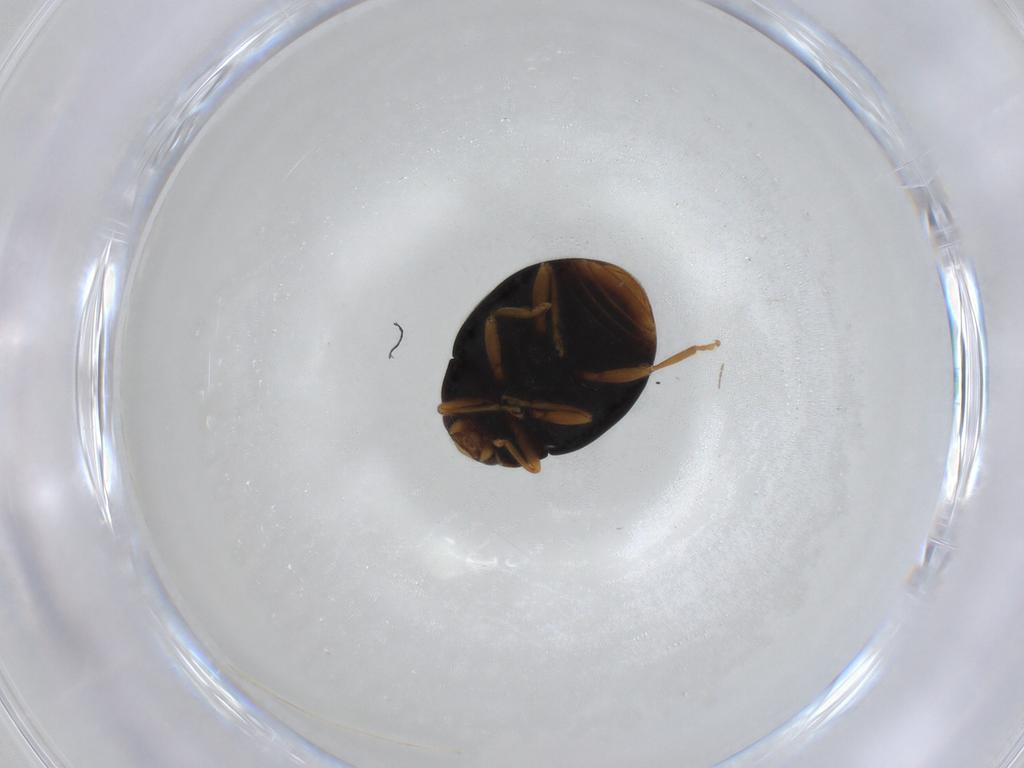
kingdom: Animalia
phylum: Arthropoda
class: Insecta
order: Coleoptera
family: Coccinellidae
